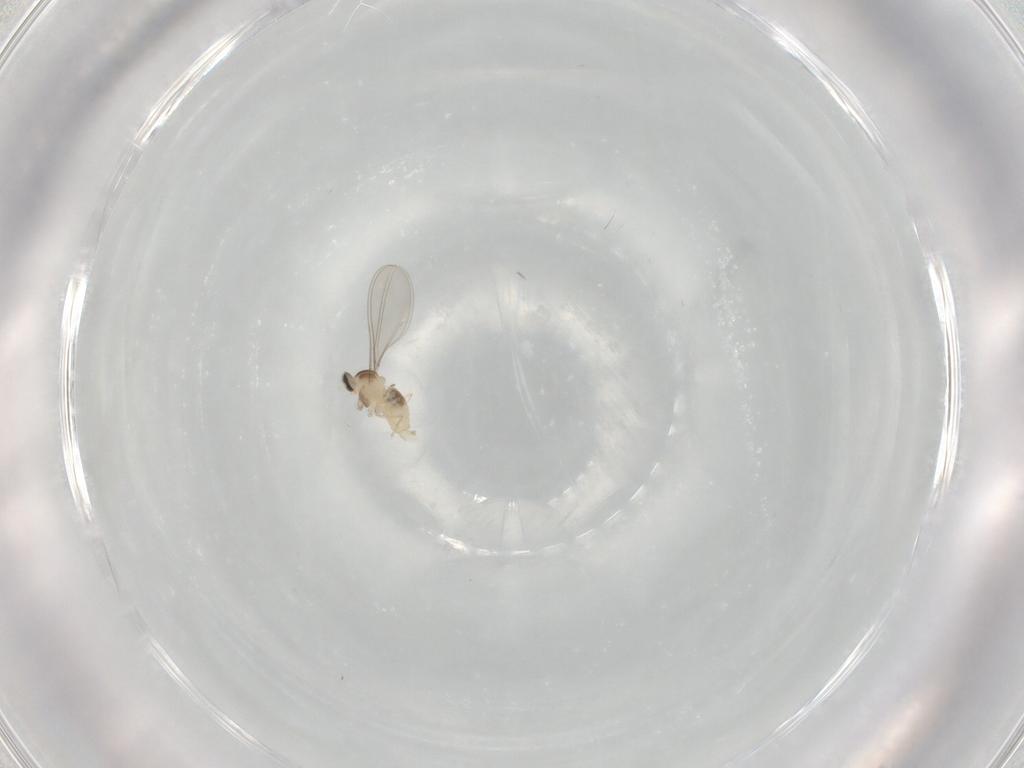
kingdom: Animalia
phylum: Arthropoda
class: Insecta
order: Diptera
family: Cecidomyiidae
